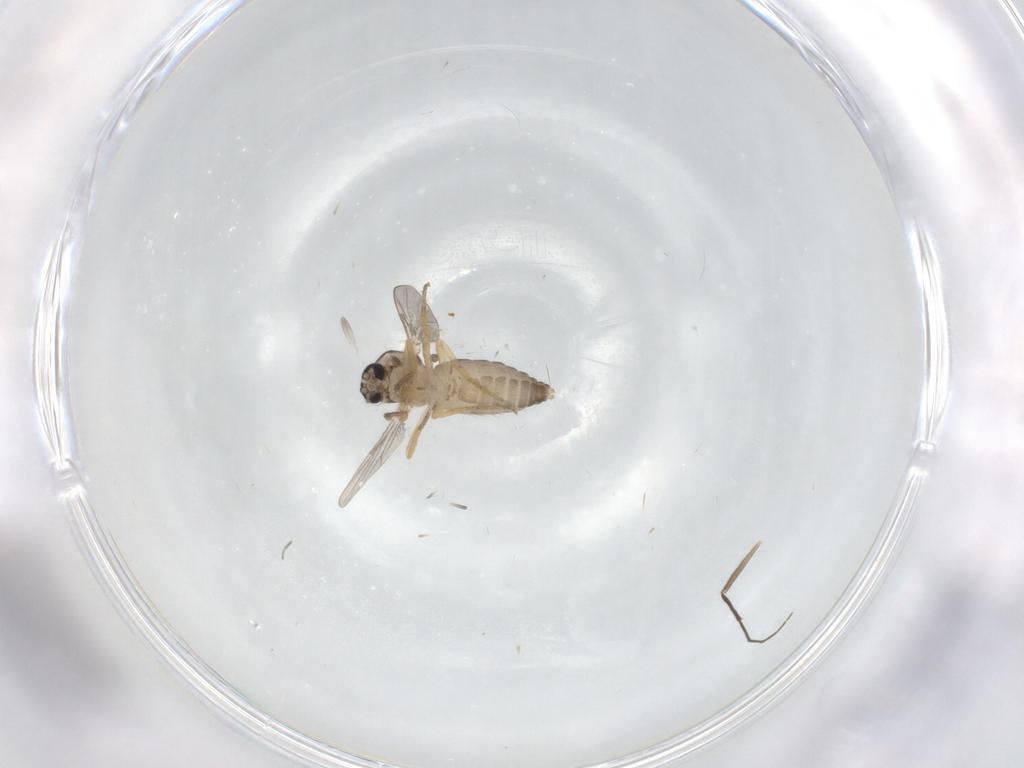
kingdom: Animalia
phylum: Arthropoda
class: Insecta
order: Diptera
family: Ceratopogonidae
